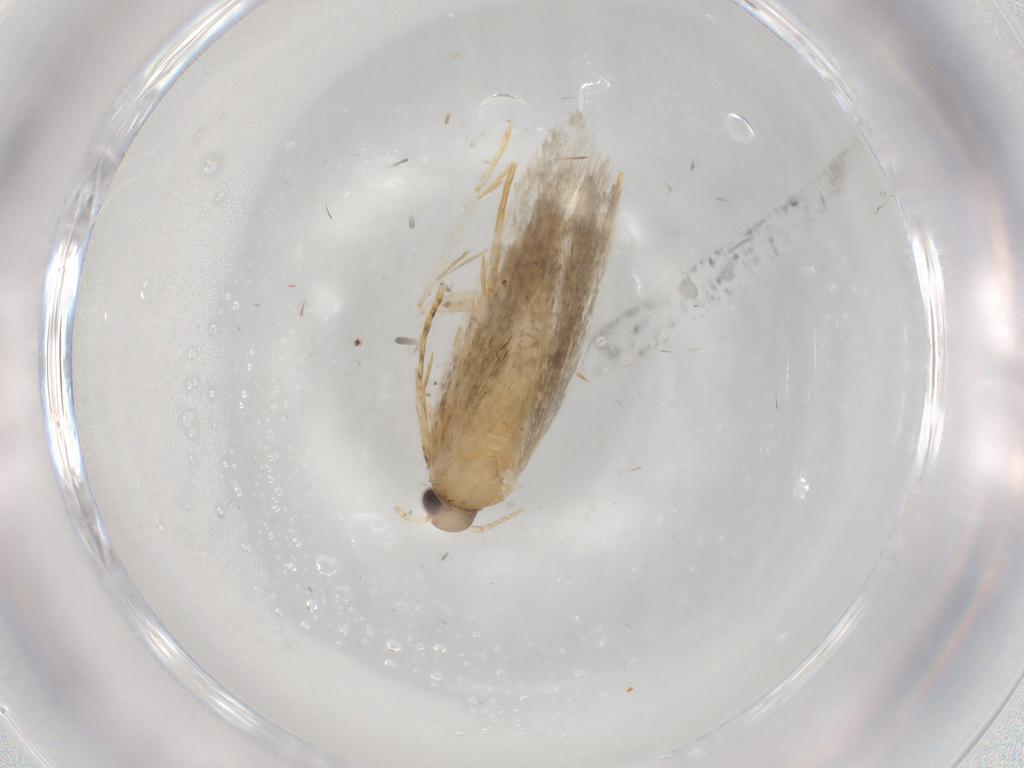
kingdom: Animalia
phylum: Arthropoda
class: Insecta
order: Lepidoptera
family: Autostichidae
